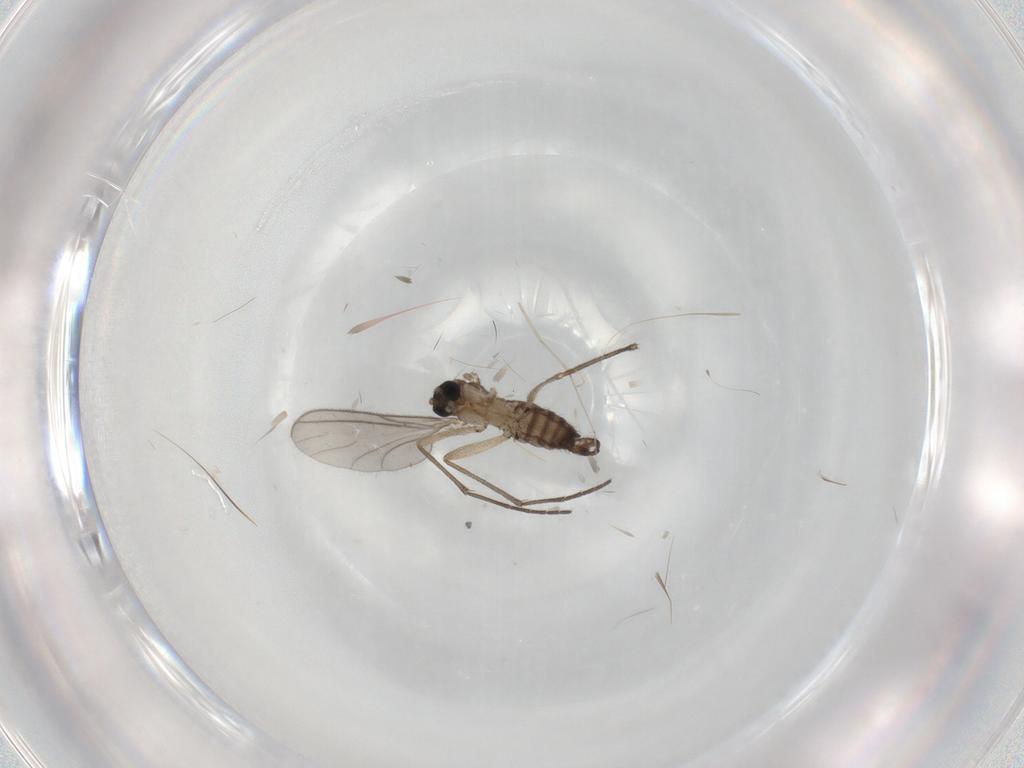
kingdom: Animalia
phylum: Arthropoda
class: Insecta
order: Diptera
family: Sciaridae
